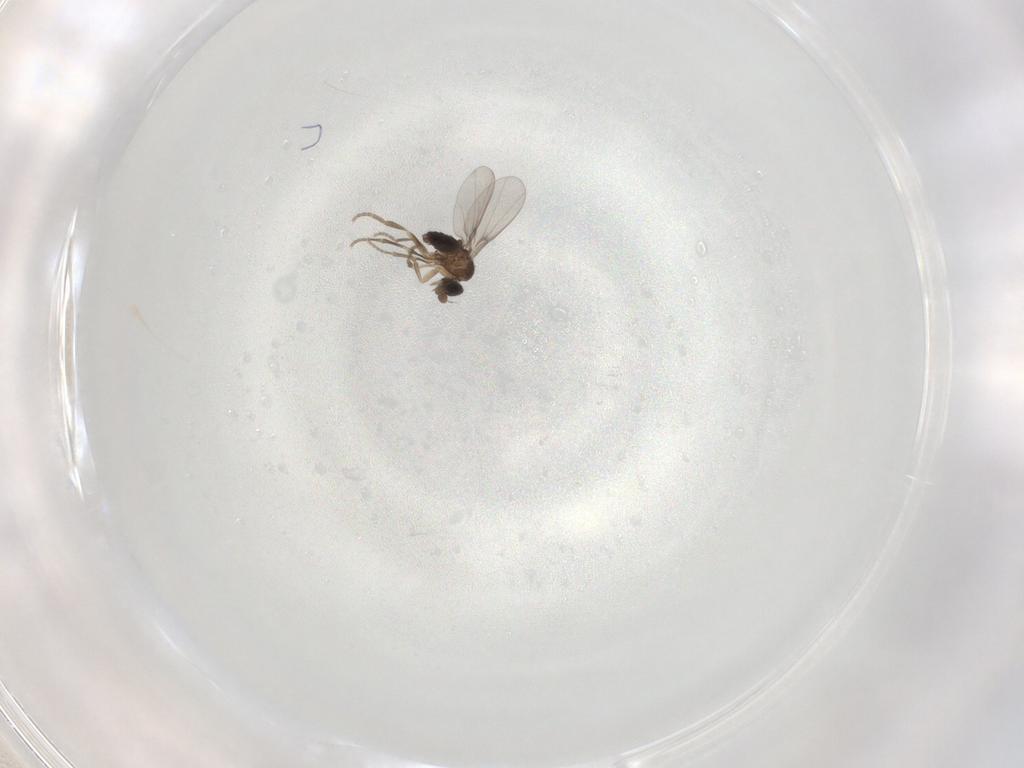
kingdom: Animalia
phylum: Arthropoda
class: Insecta
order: Diptera
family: Phoridae
